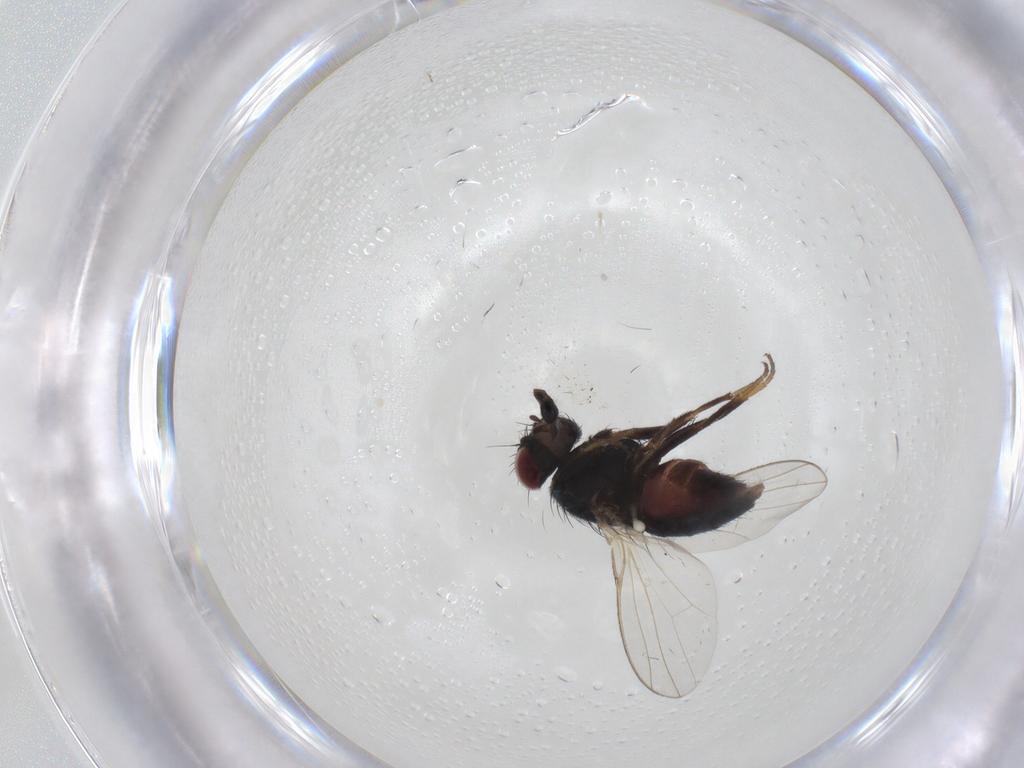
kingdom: Animalia
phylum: Arthropoda
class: Insecta
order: Diptera
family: Carnidae
